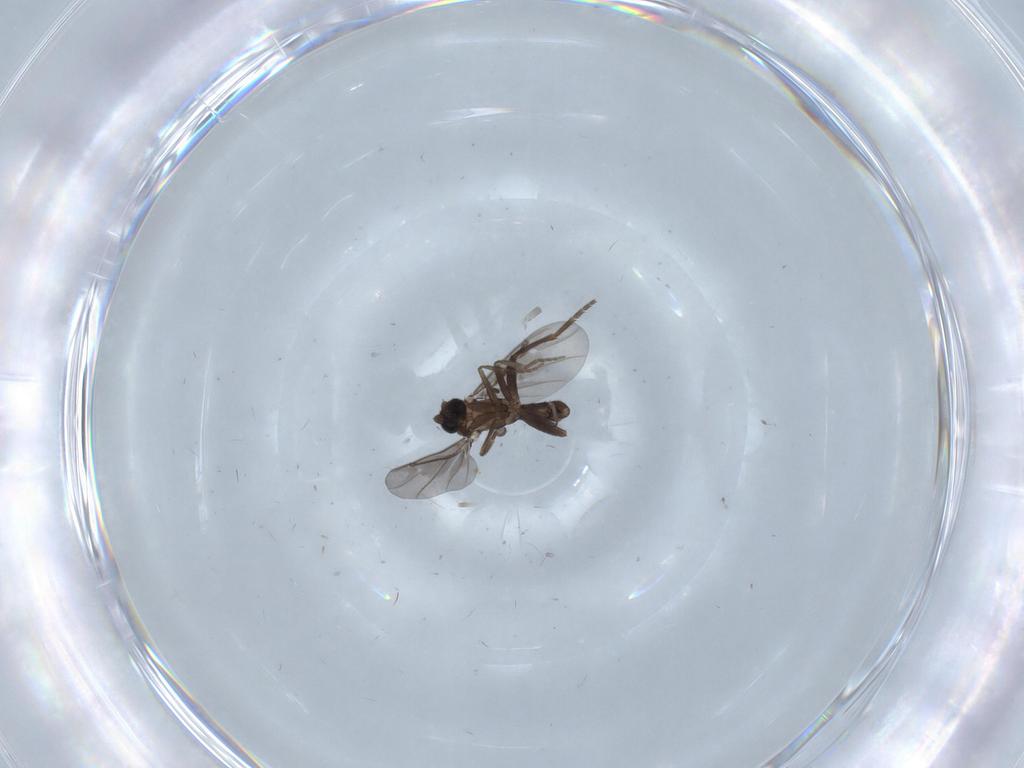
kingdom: Animalia
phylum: Arthropoda
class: Insecta
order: Diptera
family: Phoridae
